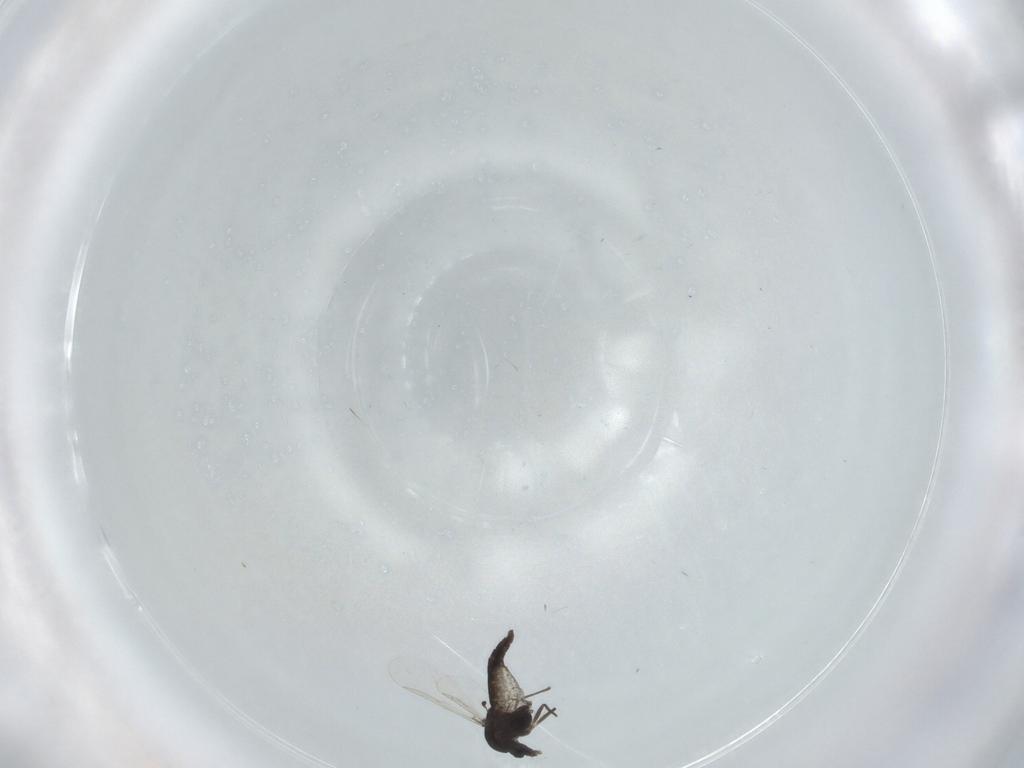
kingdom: Animalia
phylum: Arthropoda
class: Insecta
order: Diptera
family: Chironomidae
